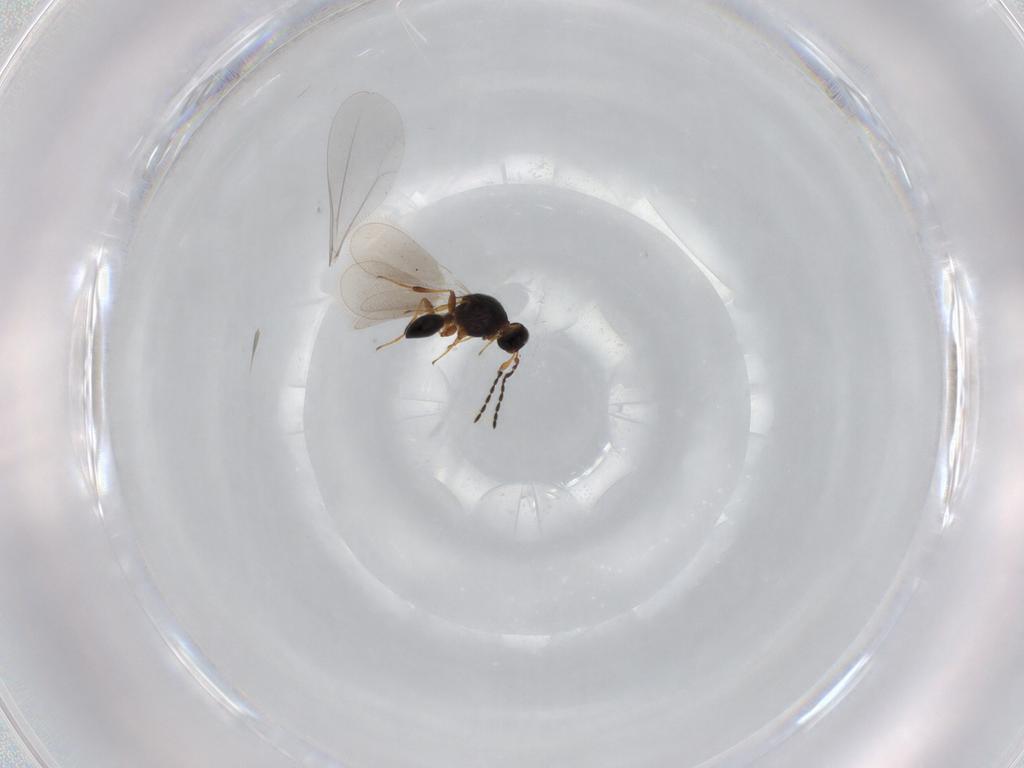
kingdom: Animalia
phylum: Arthropoda
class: Insecta
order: Hymenoptera
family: Platygastridae
